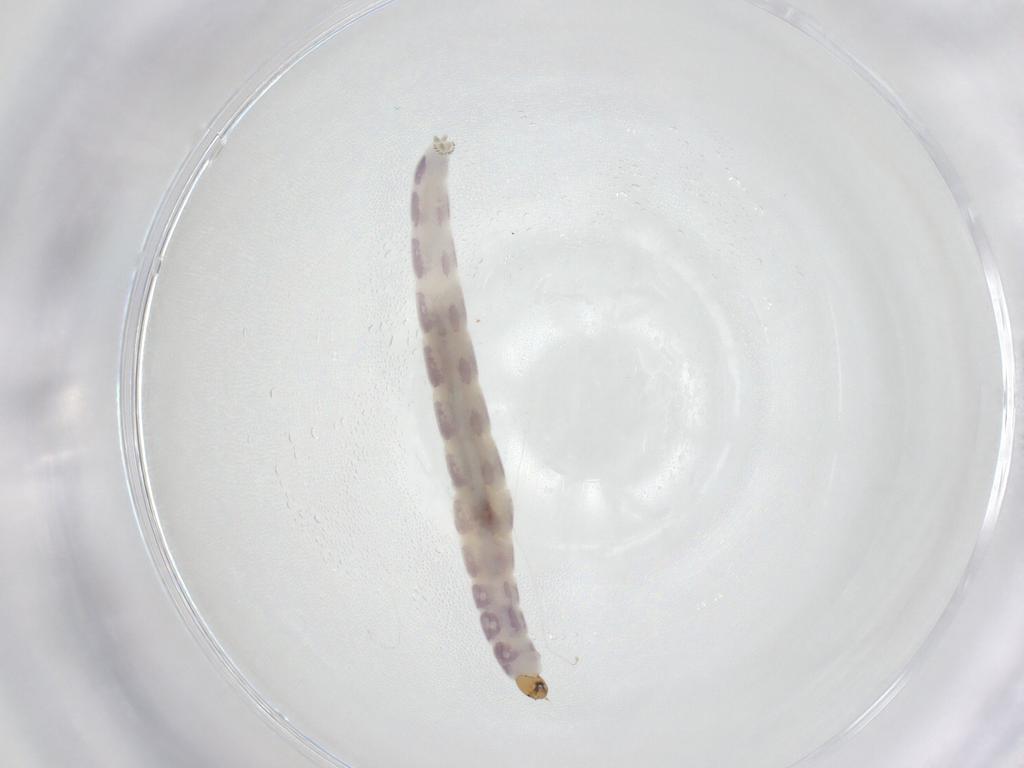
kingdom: Animalia
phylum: Arthropoda
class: Insecta
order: Diptera
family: Chironomidae
